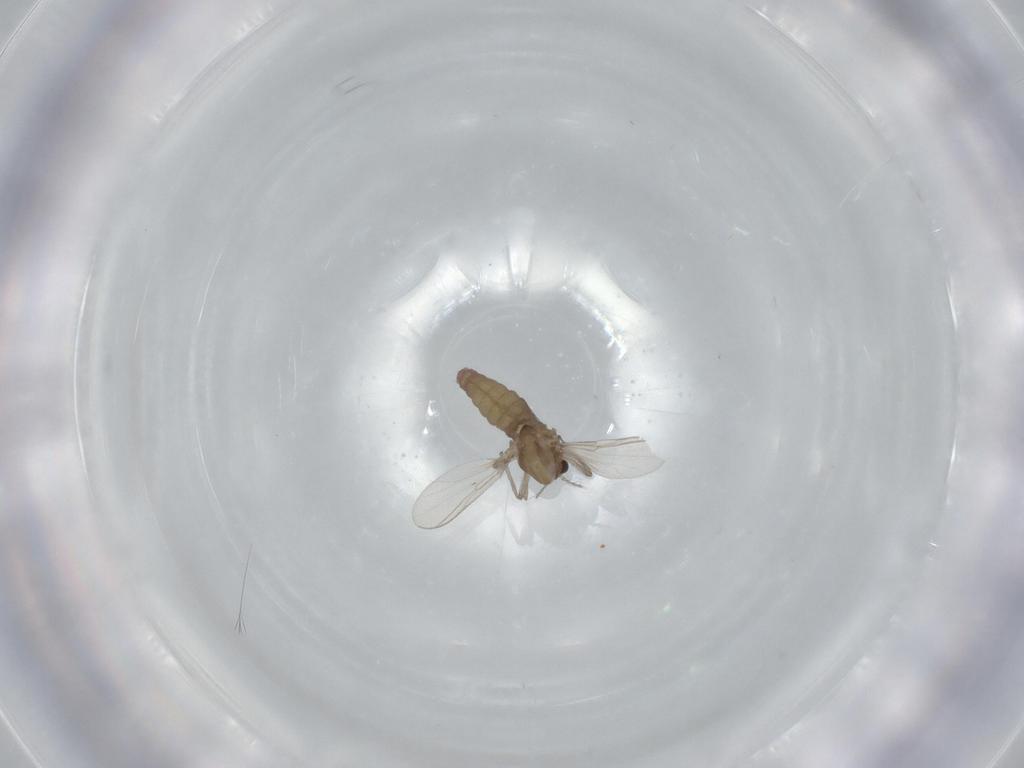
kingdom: Animalia
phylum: Arthropoda
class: Insecta
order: Diptera
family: Chironomidae
